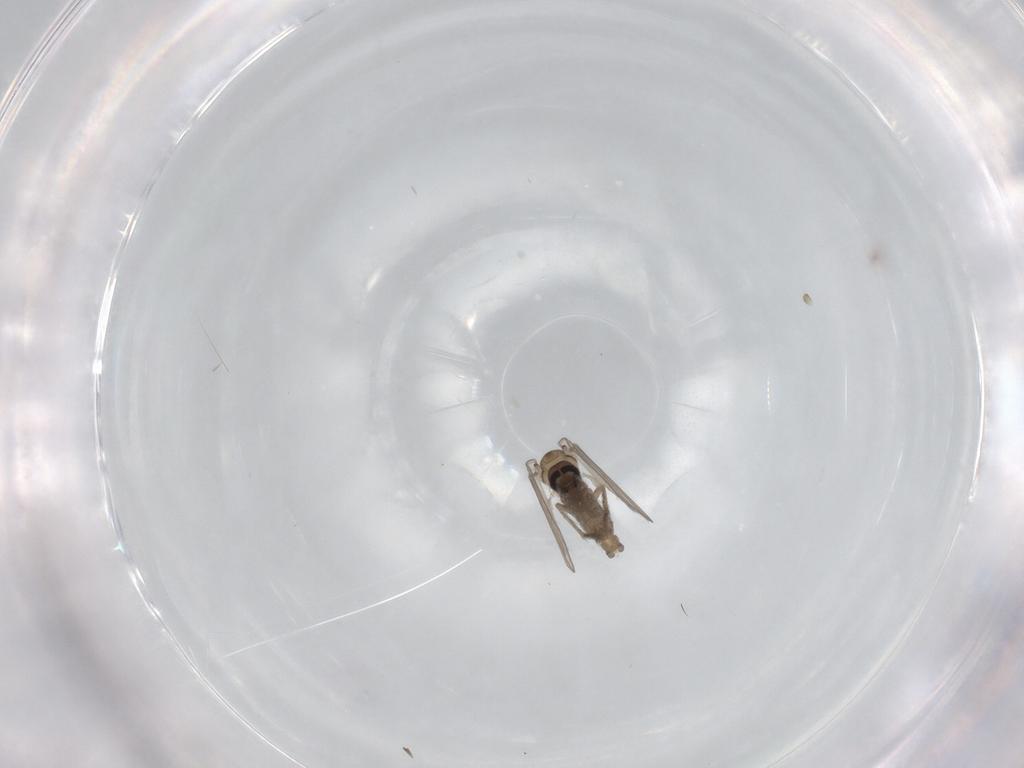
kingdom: Animalia
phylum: Arthropoda
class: Insecta
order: Diptera
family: Psychodidae
